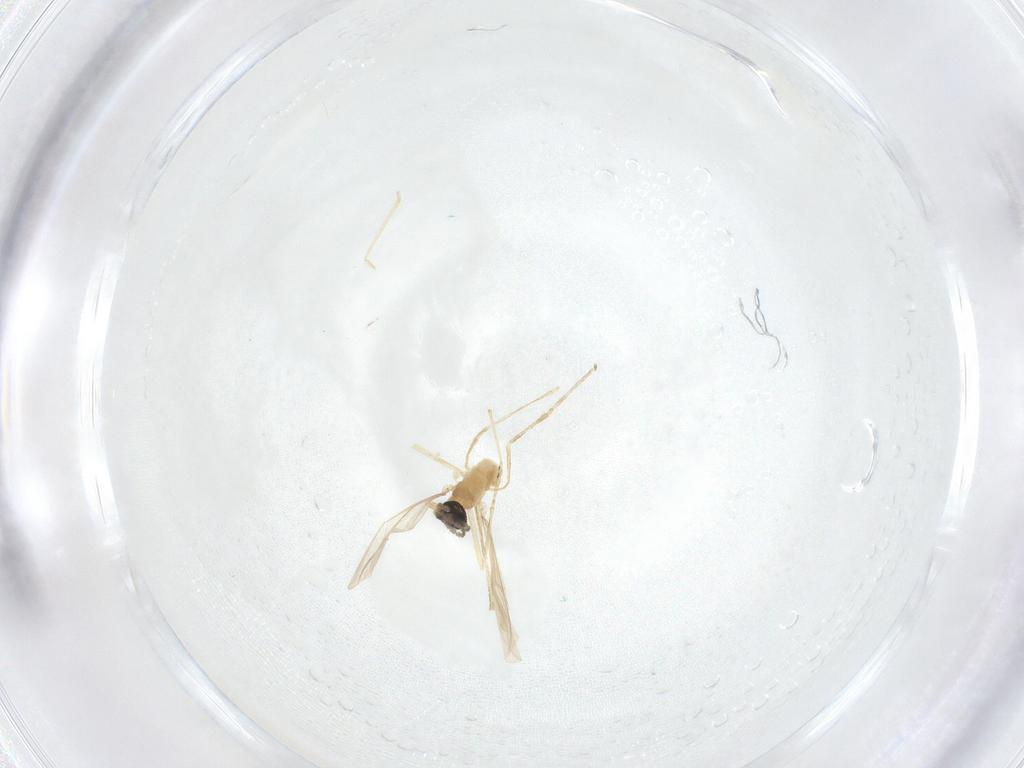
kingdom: Animalia
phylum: Arthropoda
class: Insecta
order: Diptera
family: Cecidomyiidae
